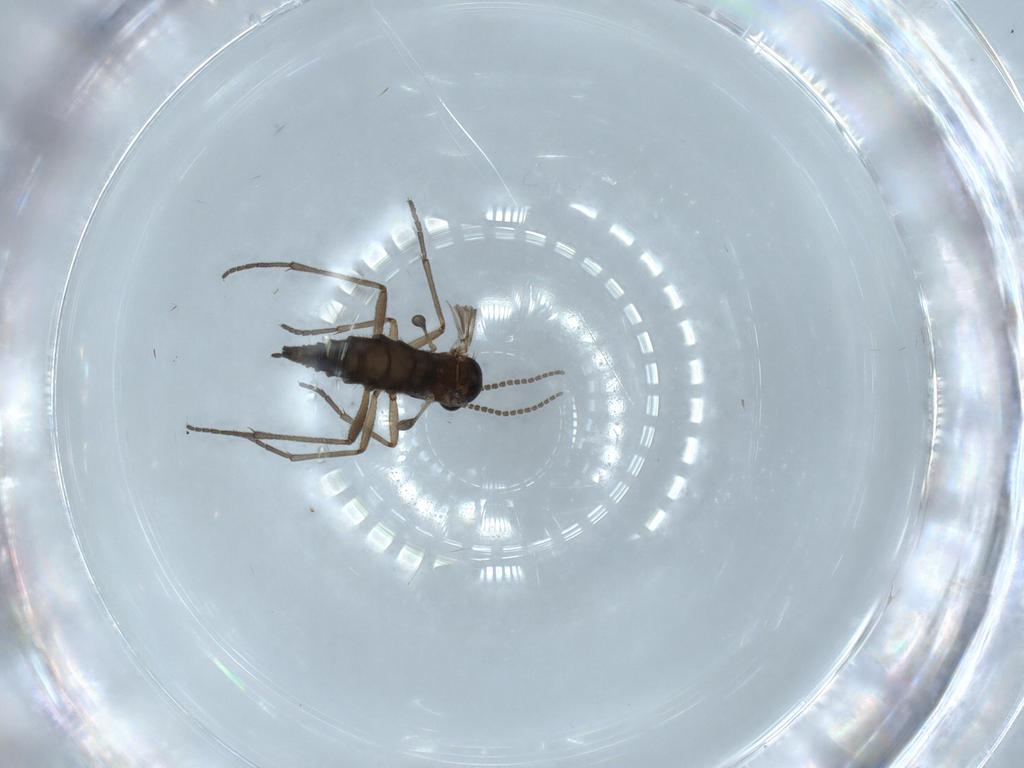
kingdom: Animalia
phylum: Arthropoda
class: Insecta
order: Diptera
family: Sciaridae
